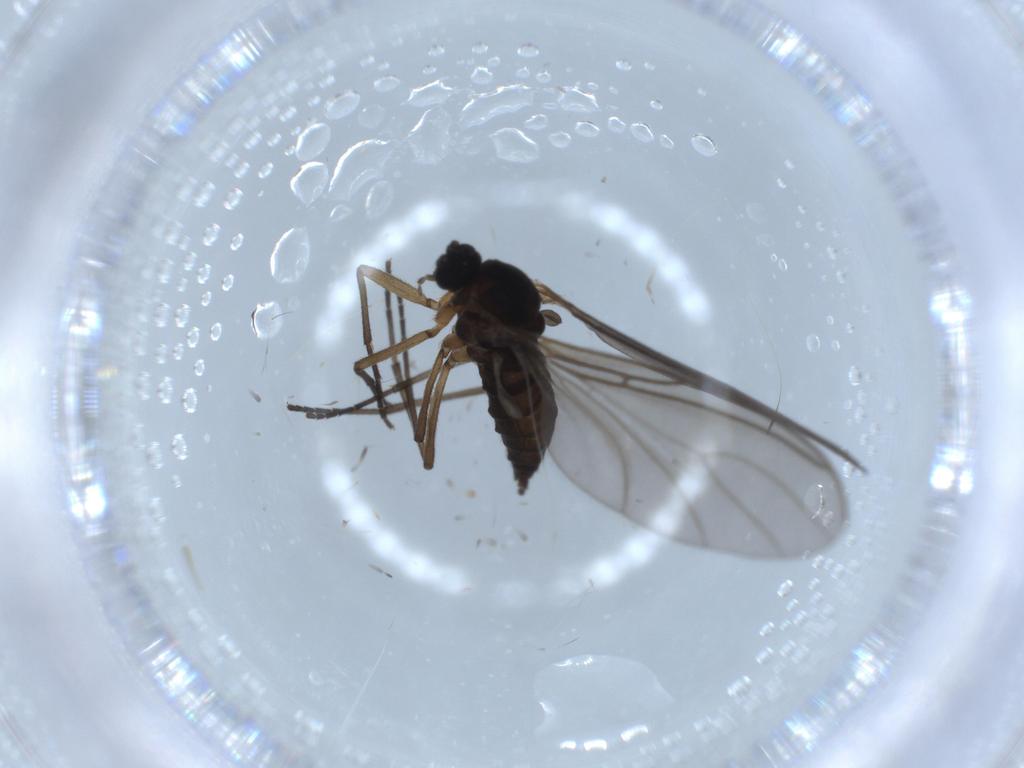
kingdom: Animalia
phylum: Arthropoda
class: Insecta
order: Diptera
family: Sciaridae
